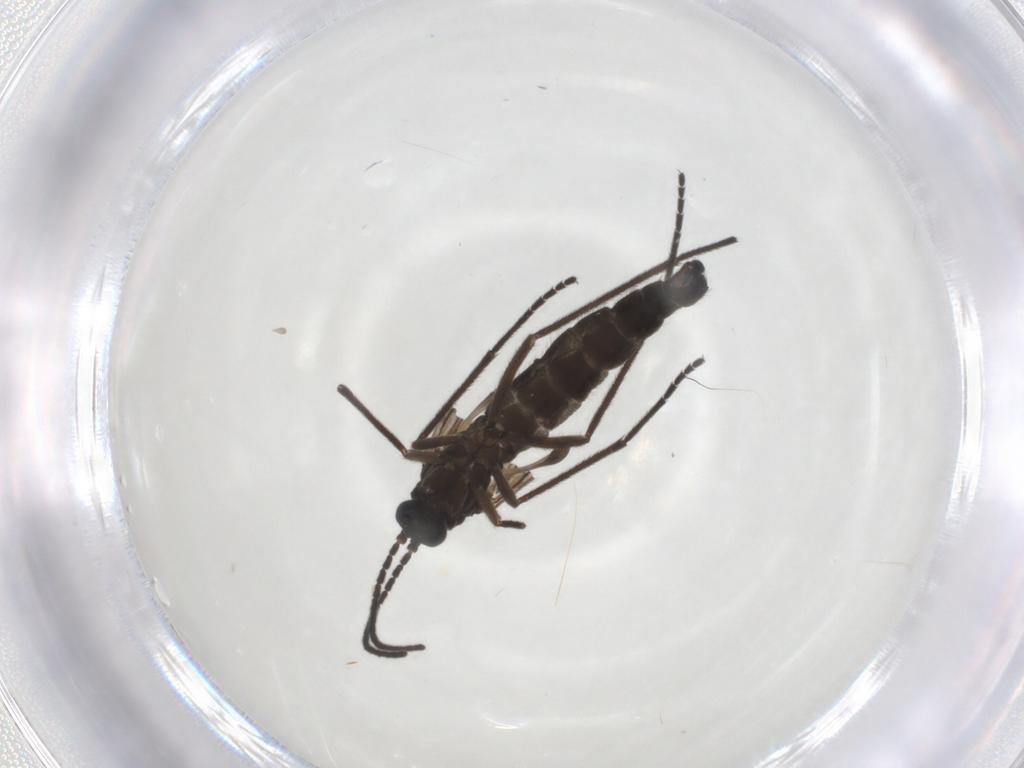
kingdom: Animalia
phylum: Arthropoda
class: Insecta
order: Diptera
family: Sciaridae
